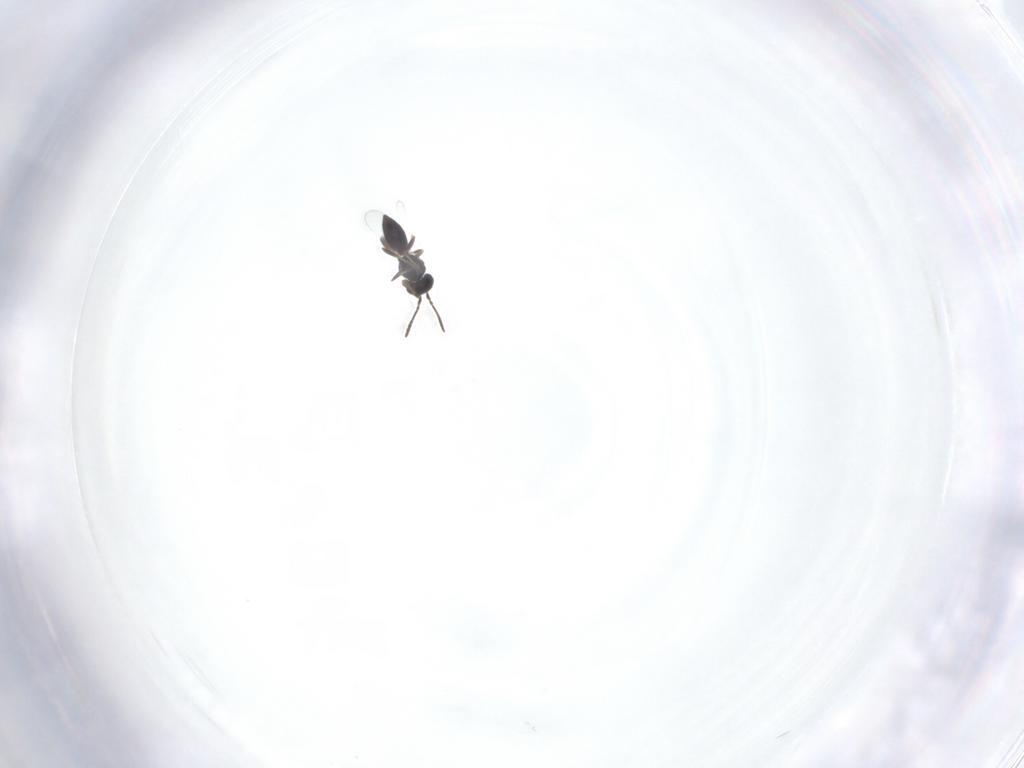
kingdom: Animalia
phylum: Arthropoda
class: Insecta
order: Hymenoptera
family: Scelionidae
